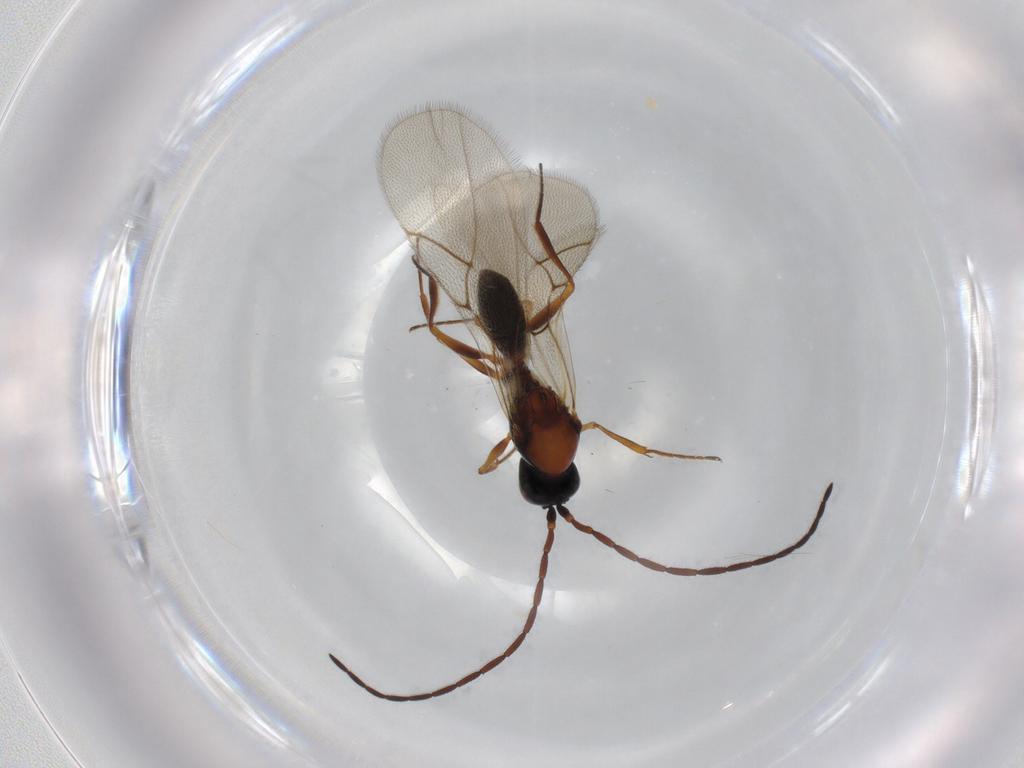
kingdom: Animalia
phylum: Arthropoda
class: Insecta
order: Hymenoptera
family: Figitidae
